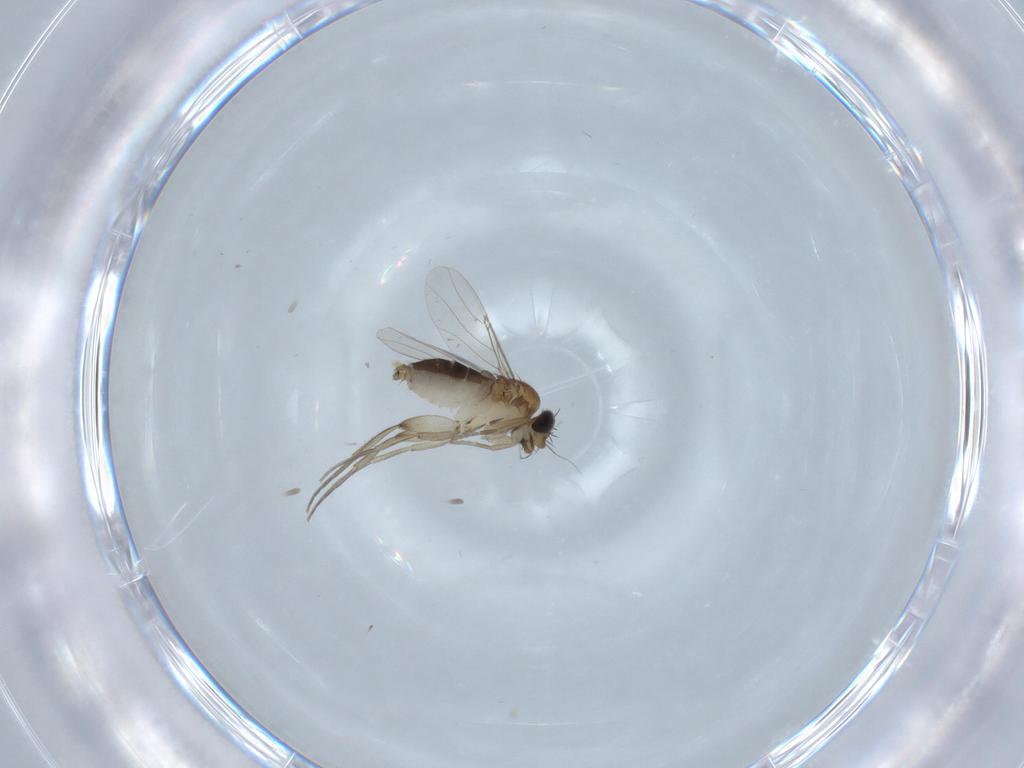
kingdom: Animalia
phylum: Arthropoda
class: Insecta
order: Diptera
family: Phoridae
